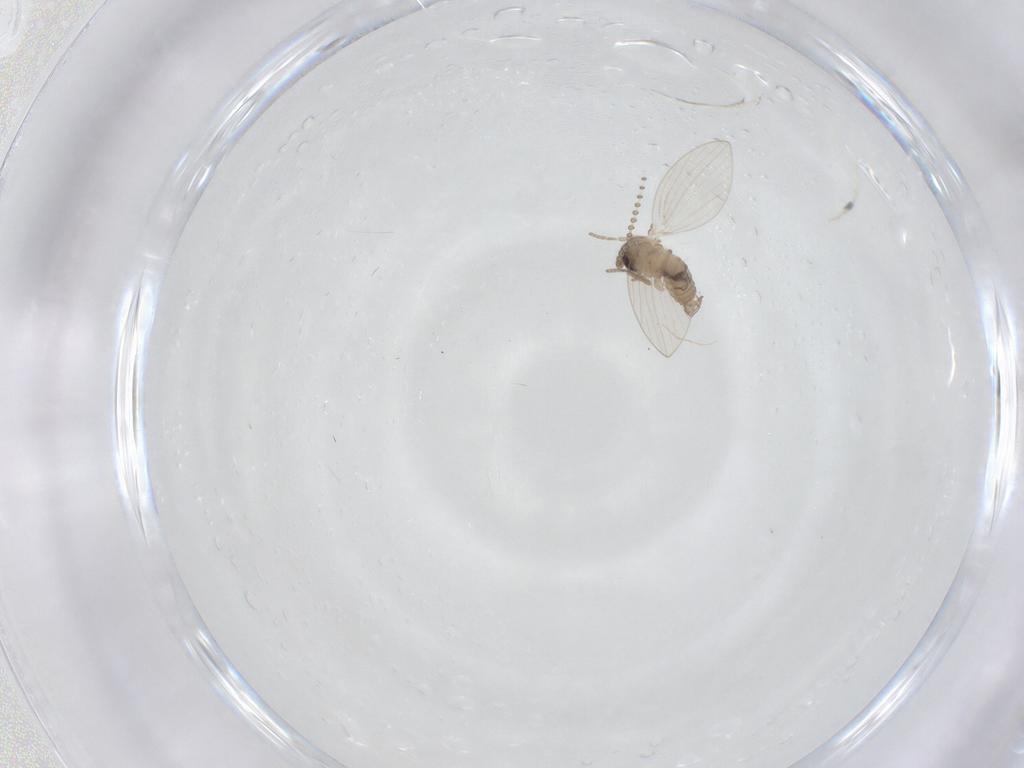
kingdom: Animalia
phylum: Arthropoda
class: Insecta
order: Diptera
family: Psychodidae
